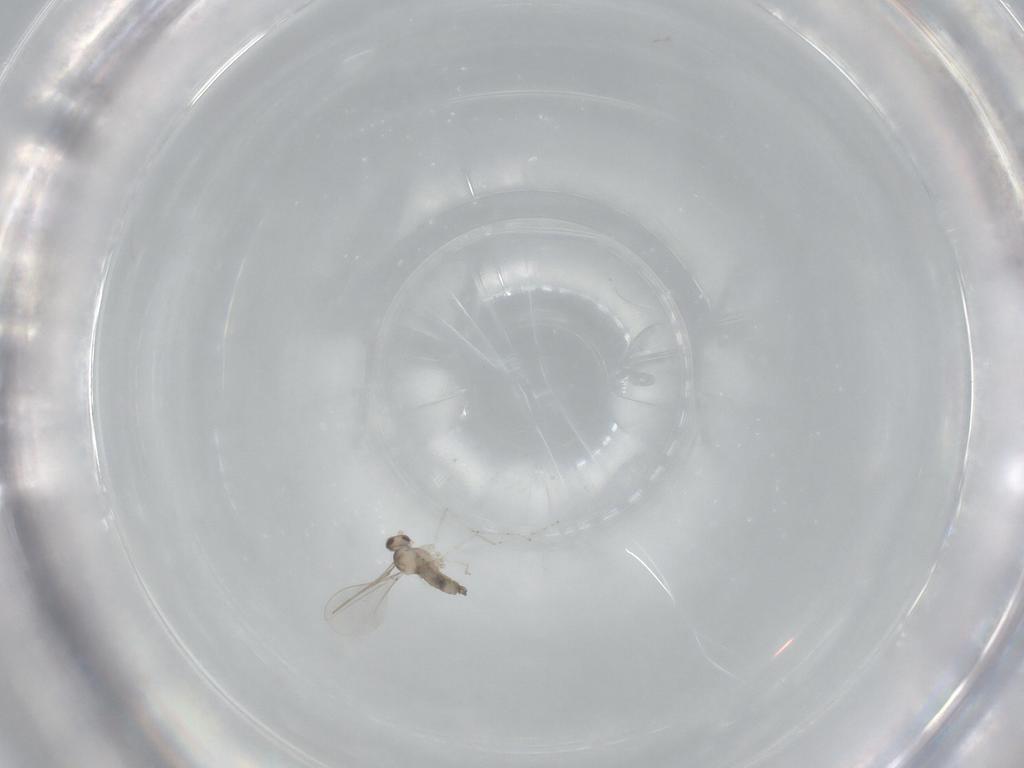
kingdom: Animalia
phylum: Arthropoda
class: Insecta
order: Diptera
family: Cecidomyiidae
